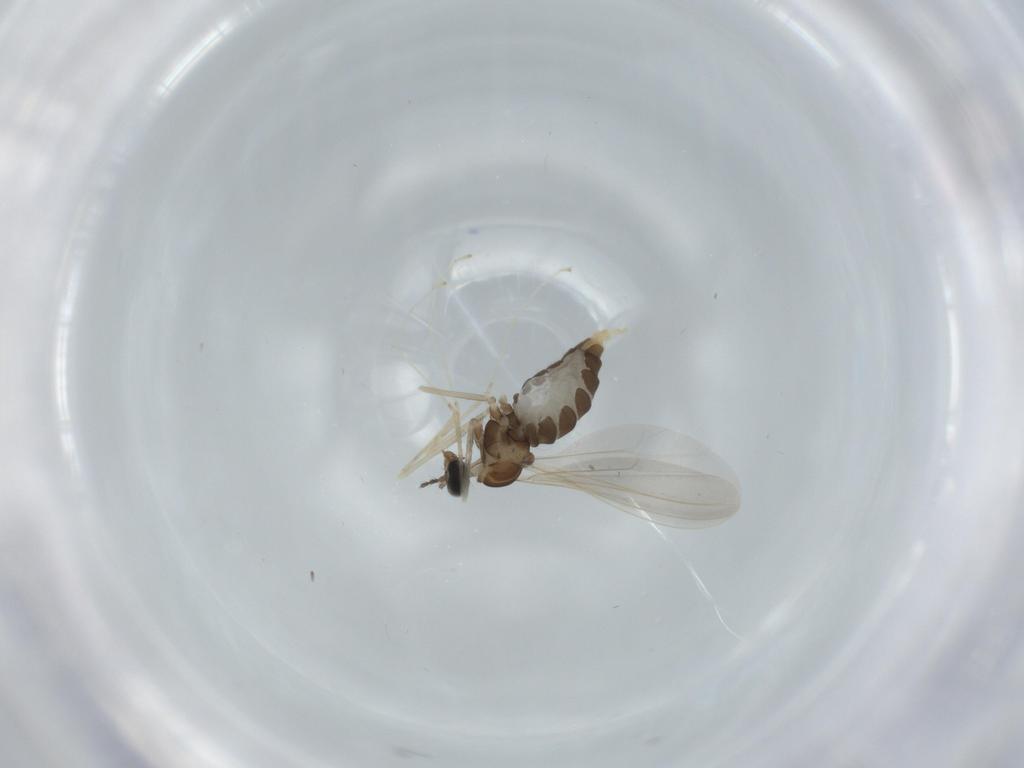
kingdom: Animalia
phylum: Arthropoda
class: Insecta
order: Diptera
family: Cecidomyiidae
